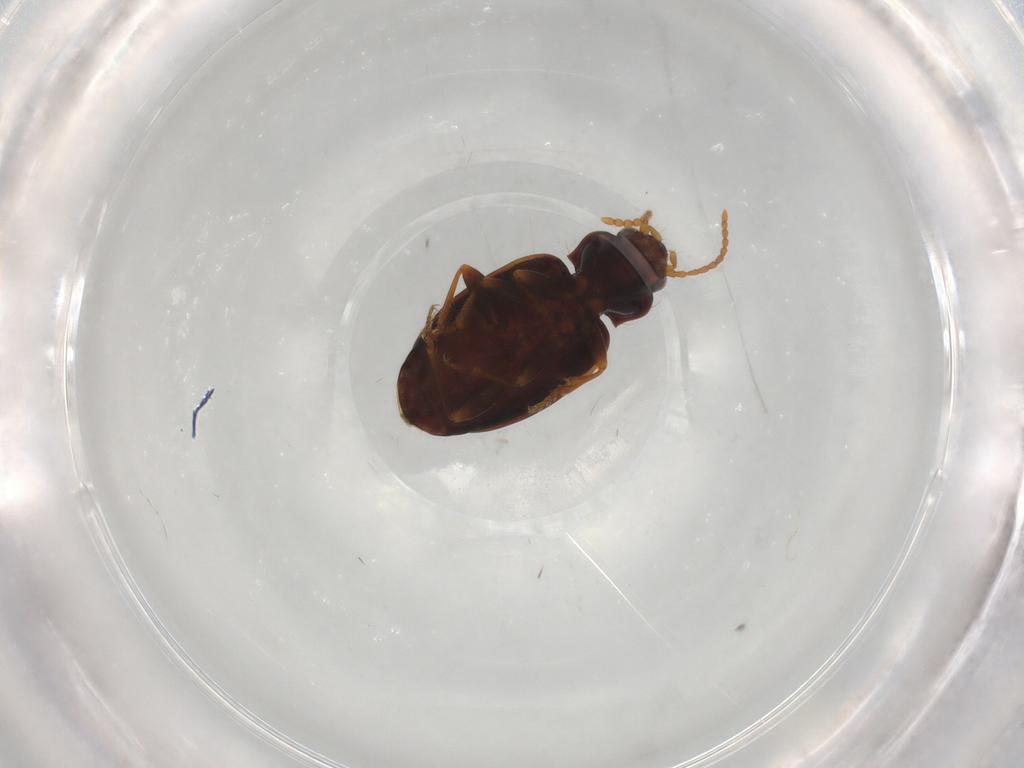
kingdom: Animalia
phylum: Arthropoda
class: Insecta
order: Coleoptera
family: Carabidae
